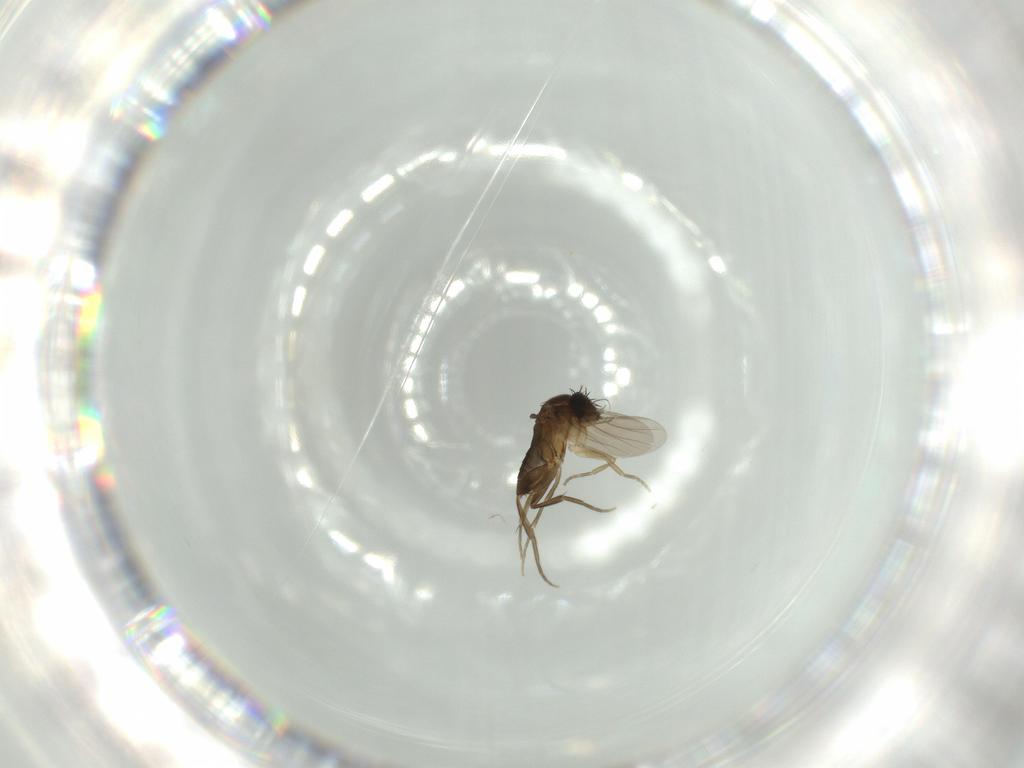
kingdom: Animalia
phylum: Arthropoda
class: Insecta
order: Diptera
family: Phoridae
